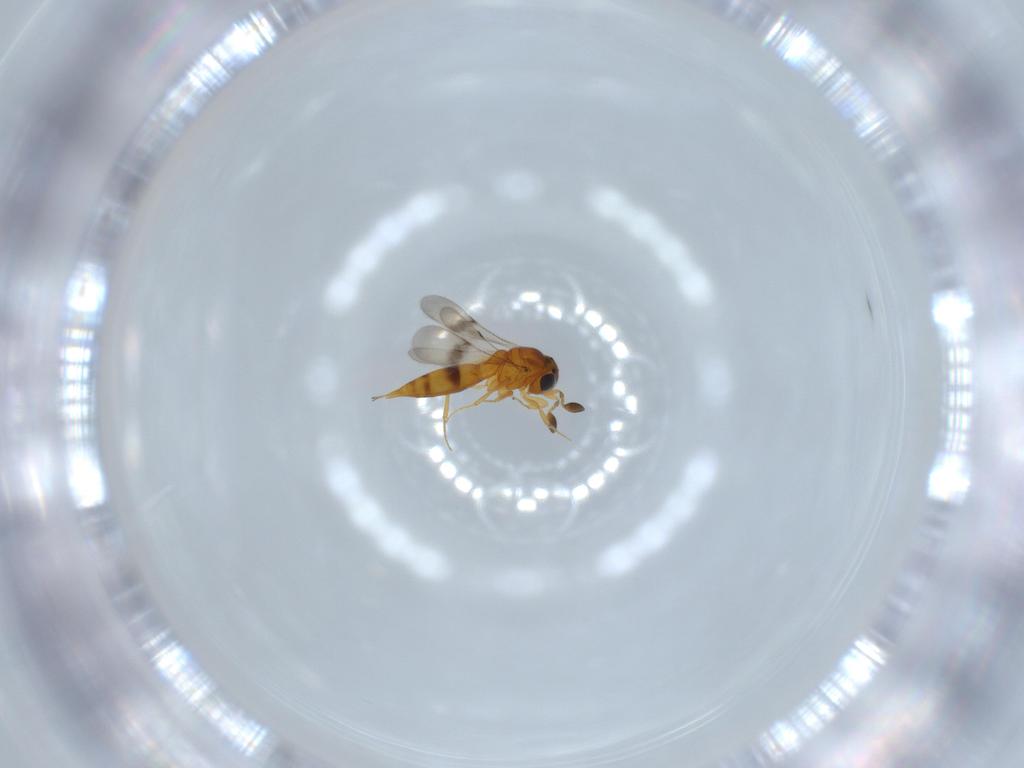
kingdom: Animalia
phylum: Arthropoda
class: Insecta
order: Hymenoptera
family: Scelionidae
